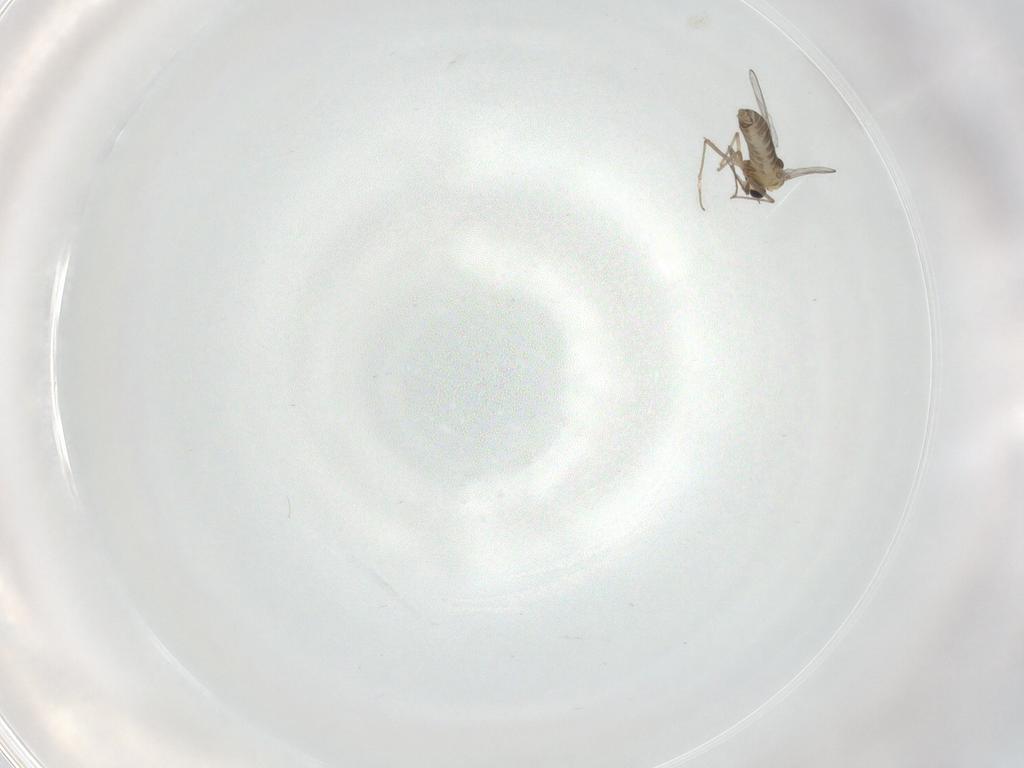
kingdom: Animalia
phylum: Arthropoda
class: Insecta
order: Diptera
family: Chironomidae
